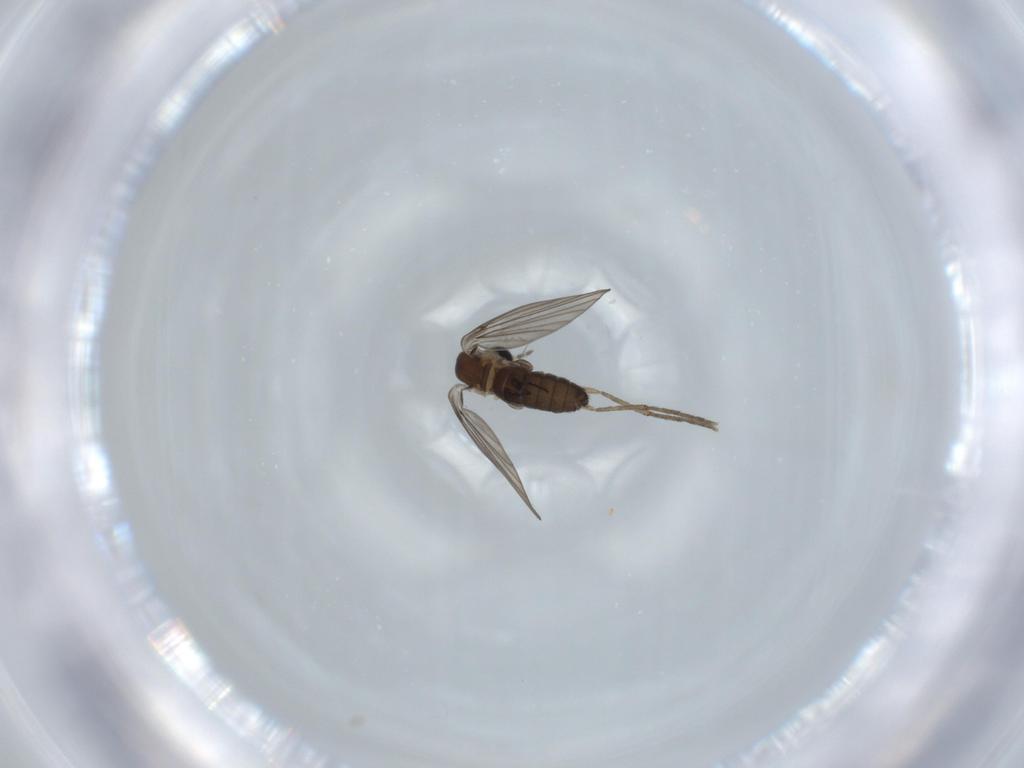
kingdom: Animalia
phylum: Arthropoda
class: Insecta
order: Diptera
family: Psychodidae
